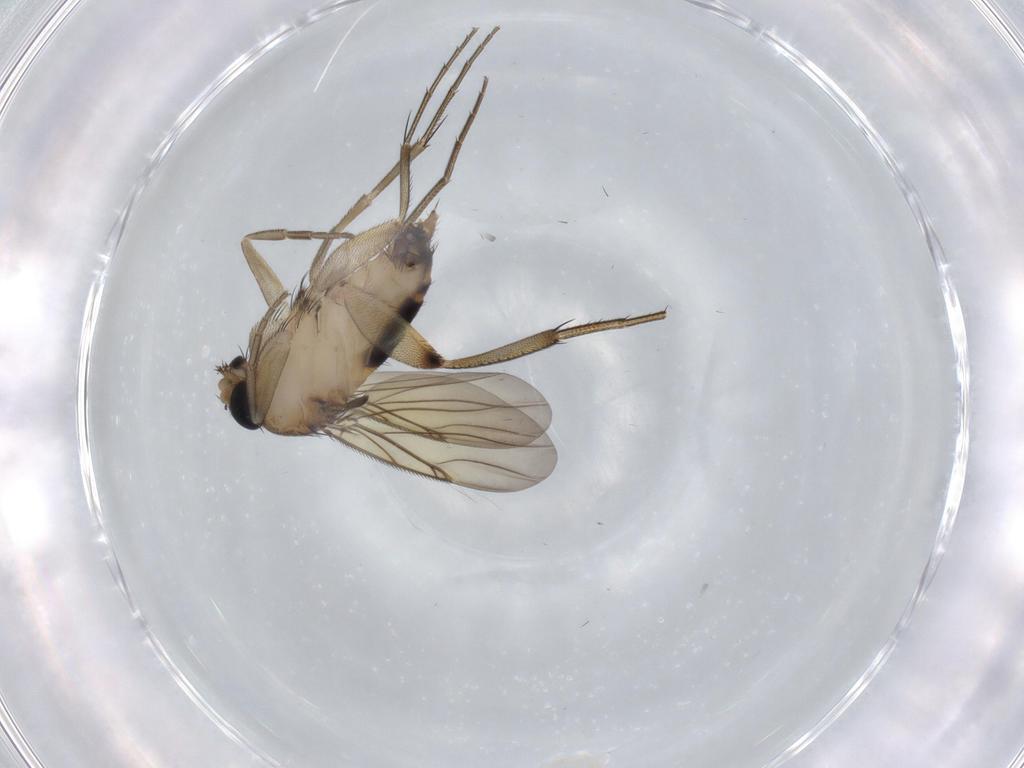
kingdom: Animalia
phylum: Arthropoda
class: Insecta
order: Diptera
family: Phoridae
